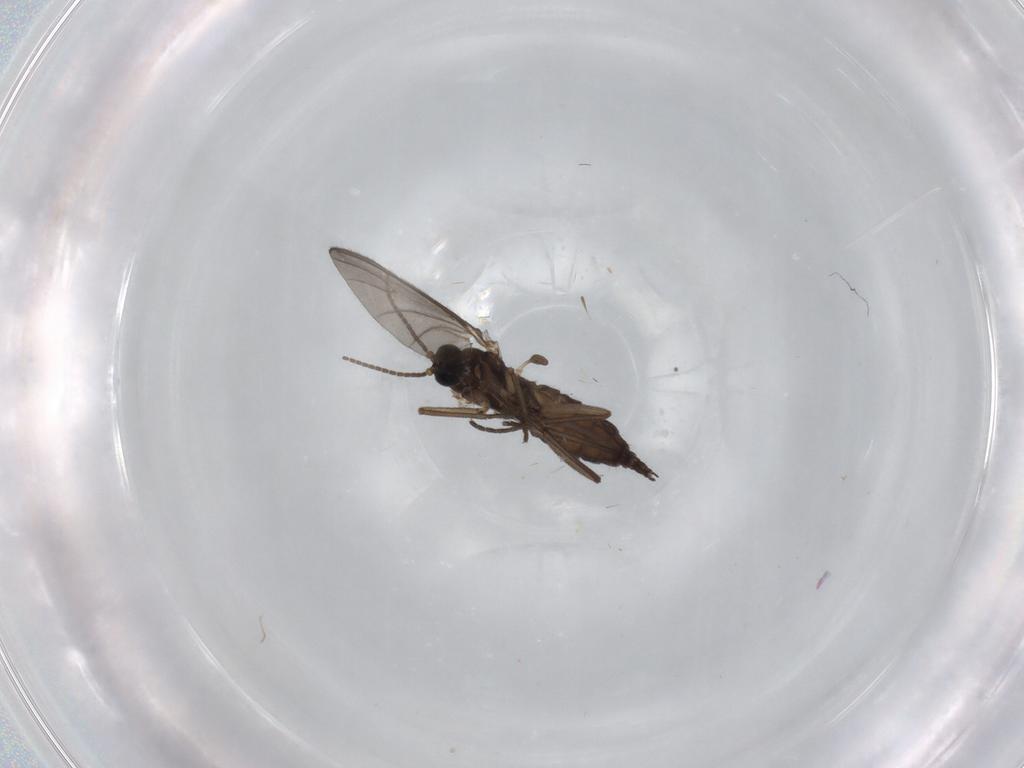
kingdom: Animalia
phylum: Arthropoda
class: Insecta
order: Diptera
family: Sciaridae
